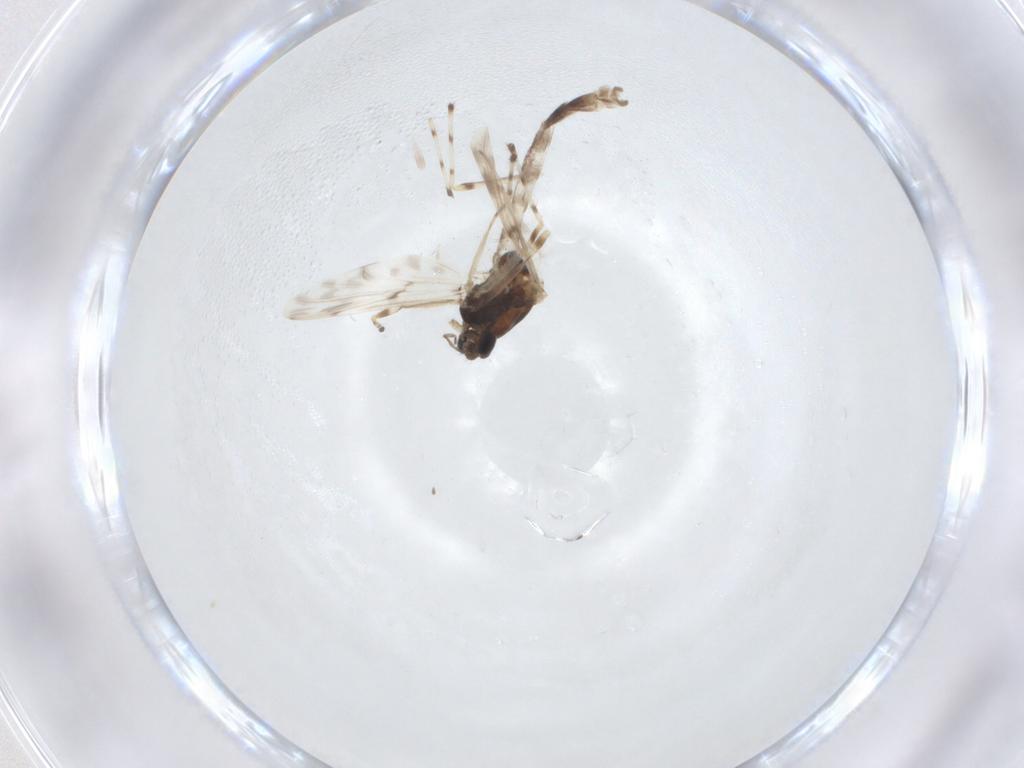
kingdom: Animalia
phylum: Arthropoda
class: Insecta
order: Diptera
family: Chironomidae
